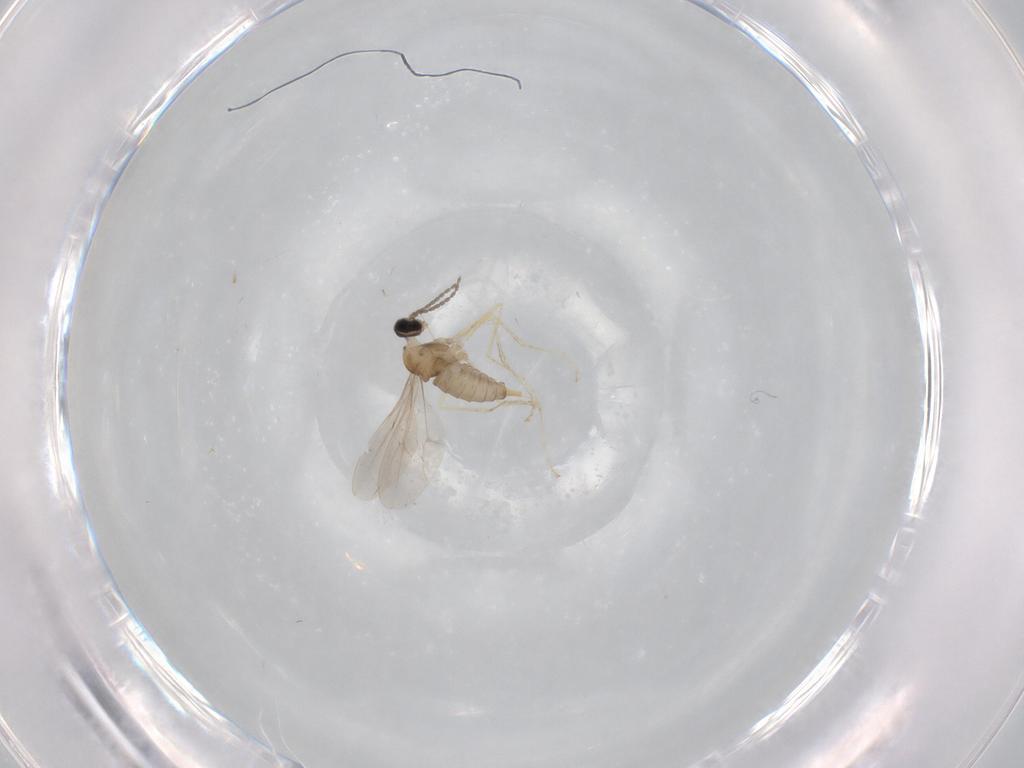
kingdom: Animalia
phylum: Arthropoda
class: Insecta
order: Diptera
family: Cecidomyiidae
